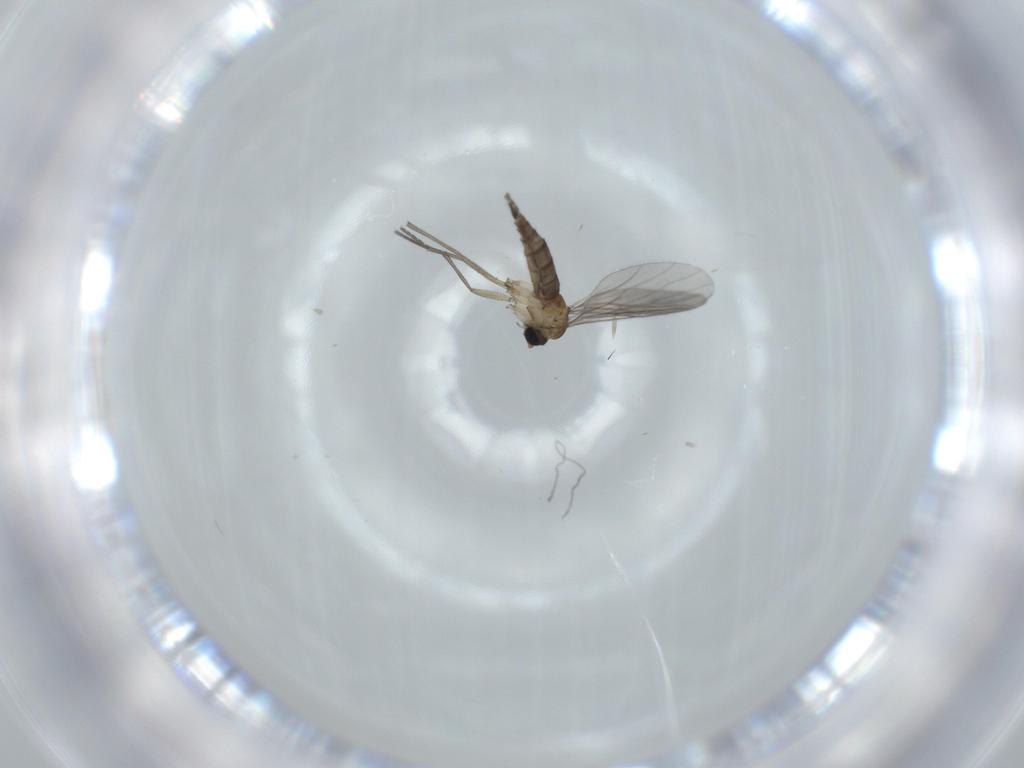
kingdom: Animalia
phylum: Arthropoda
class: Insecta
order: Diptera
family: Sciaridae
